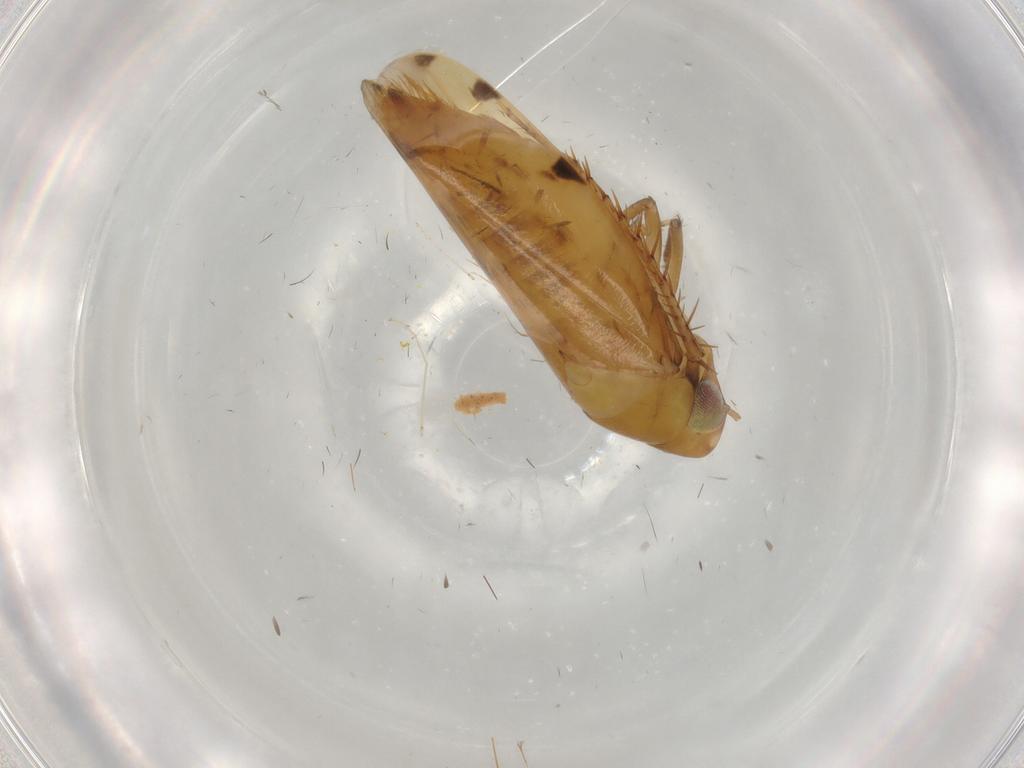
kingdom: Animalia
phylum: Arthropoda
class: Insecta
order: Hemiptera
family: Cicadellidae
